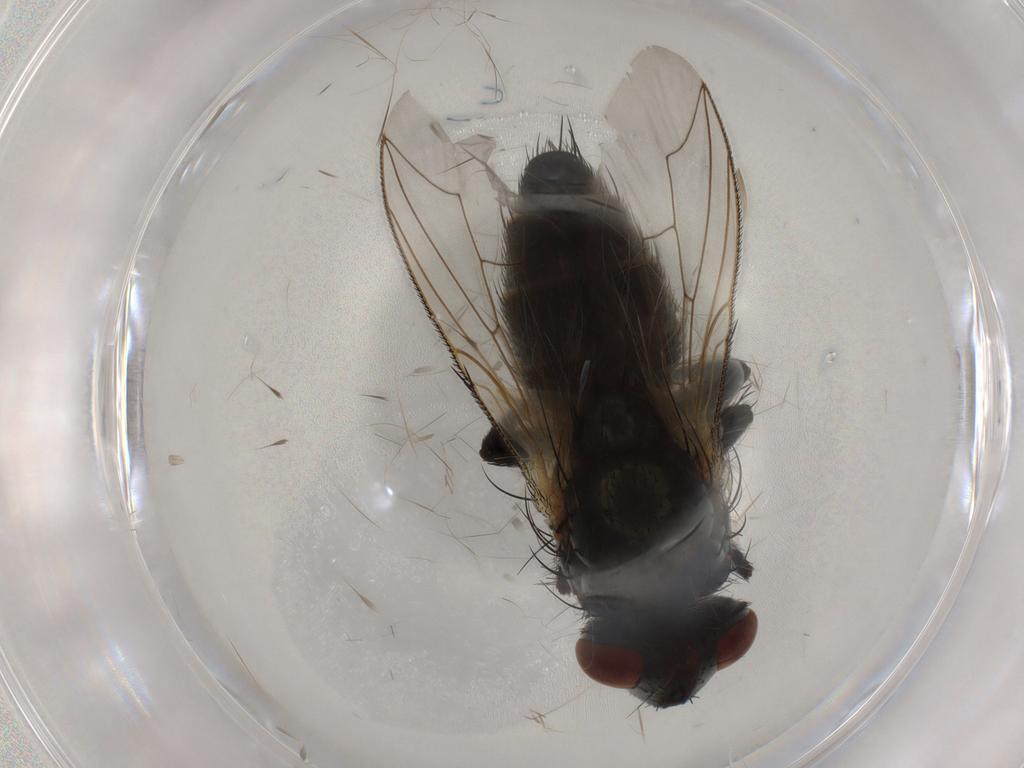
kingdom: Animalia
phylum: Arthropoda
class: Insecta
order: Diptera
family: Sarcophagidae
